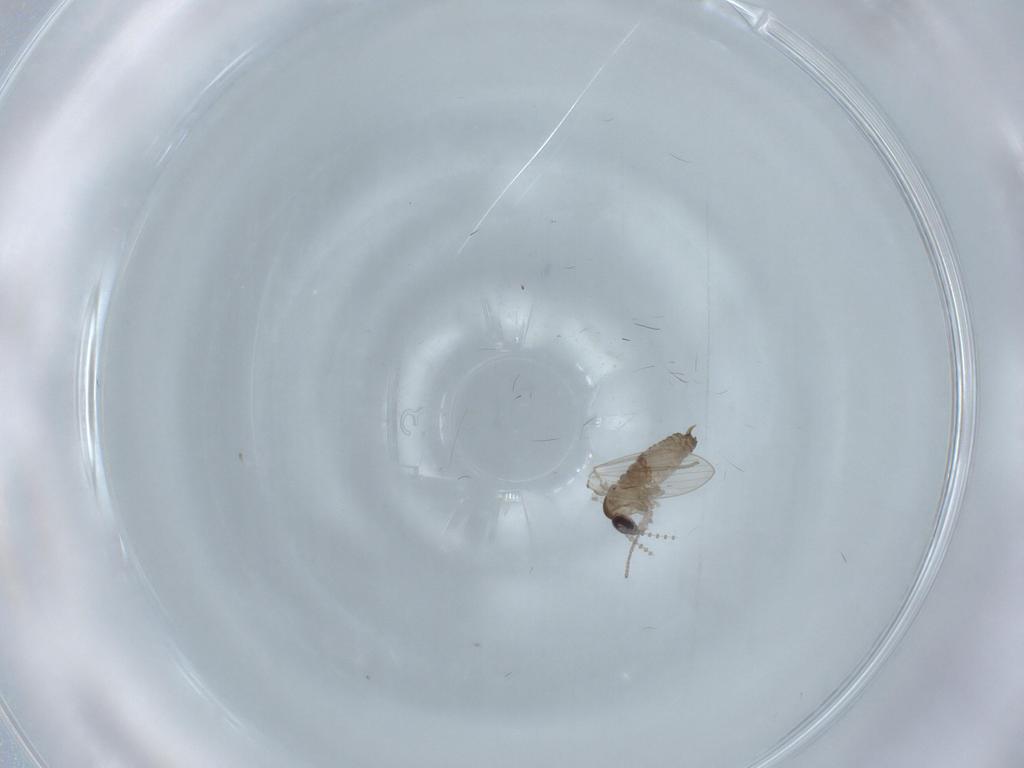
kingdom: Animalia
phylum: Arthropoda
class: Insecta
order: Diptera
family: Psychodidae
